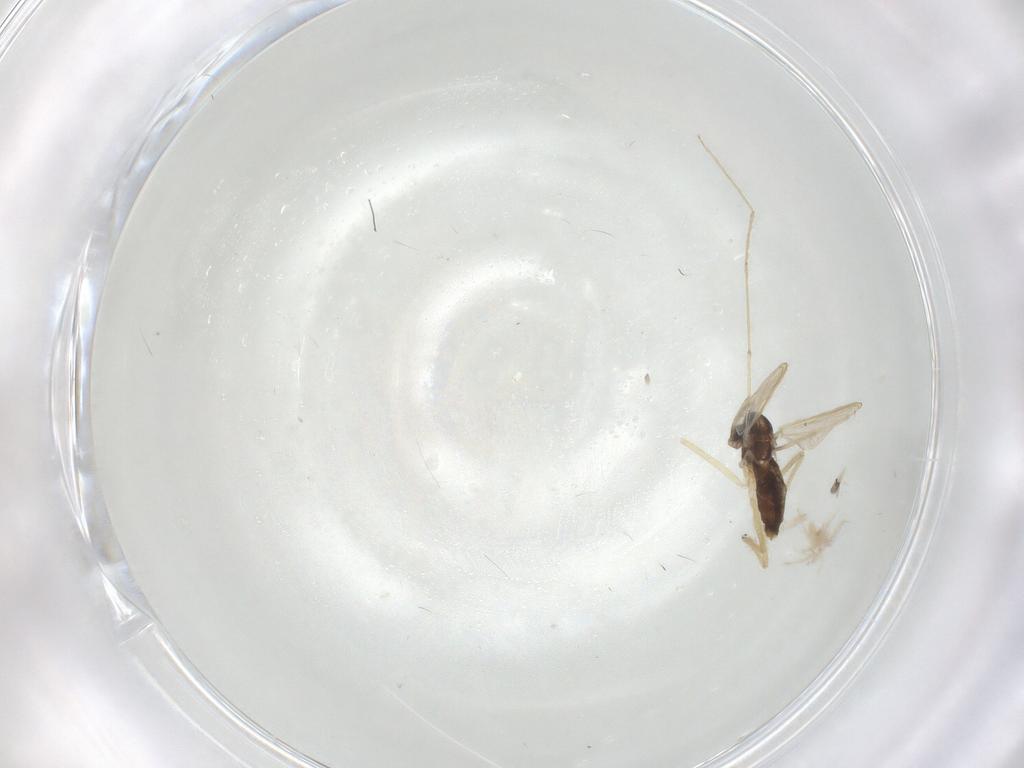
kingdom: Animalia
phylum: Arthropoda
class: Insecta
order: Diptera
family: Chironomidae
